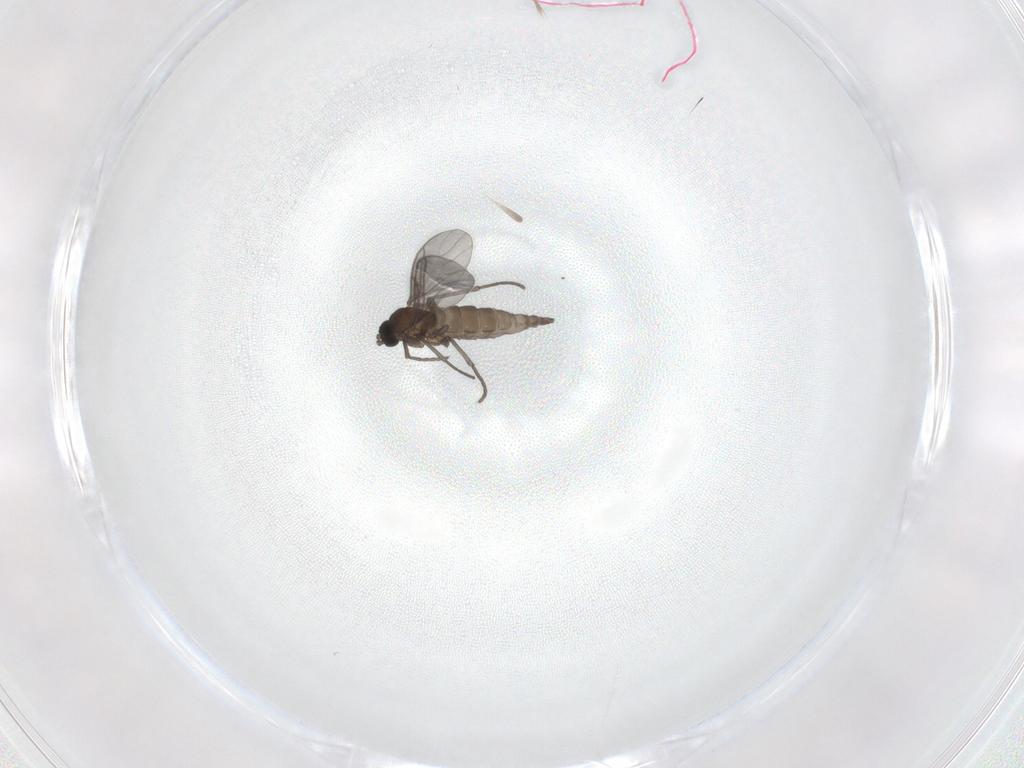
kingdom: Animalia
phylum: Arthropoda
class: Insecta
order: Diptera
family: Sciaridae
